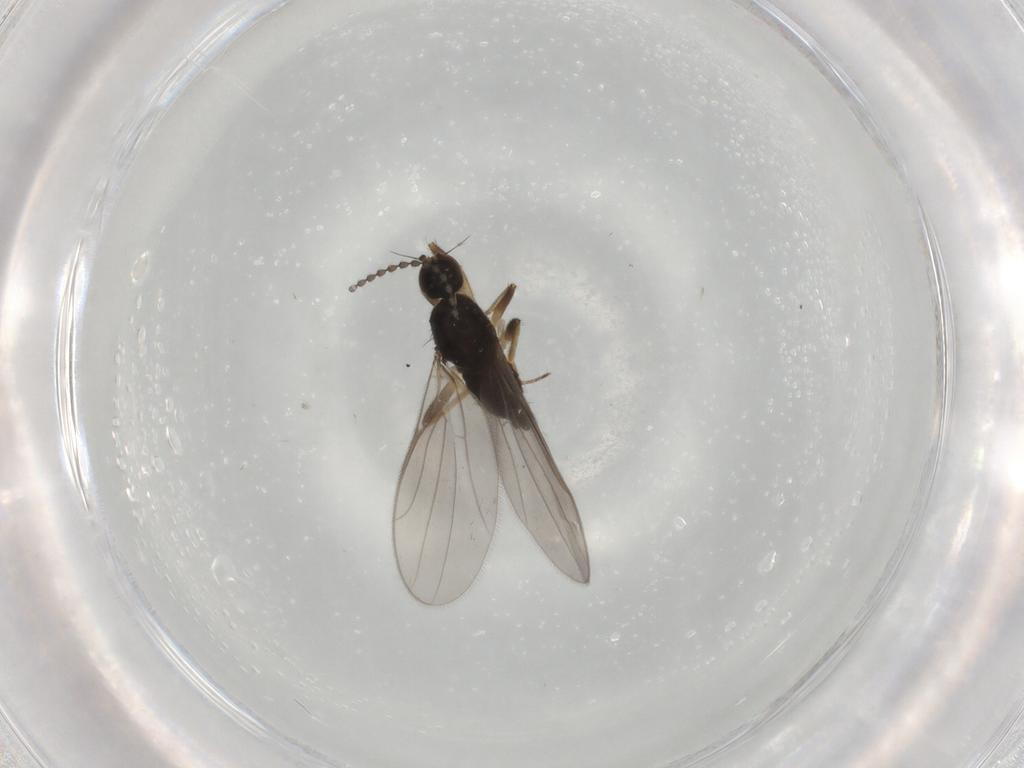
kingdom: Animalia
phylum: Arthropoda
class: Insecta
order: Diptera
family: Hybotidae
